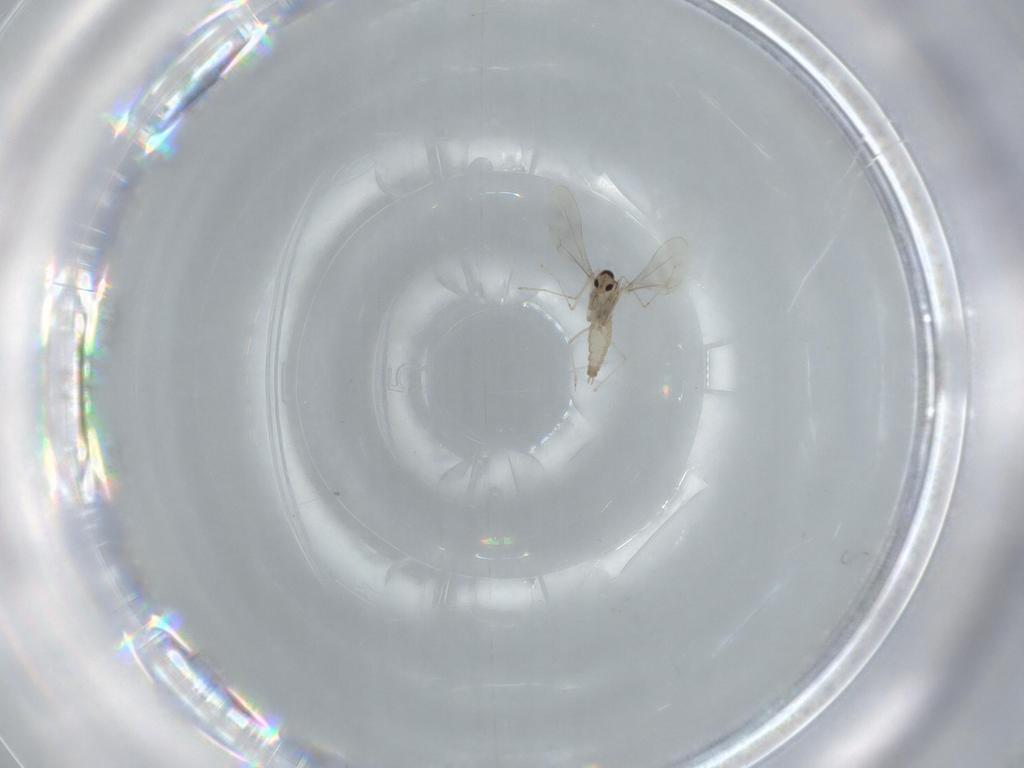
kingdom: Animalia
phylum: Arthropoda
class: Insecta
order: Diptera
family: Cecidomyiidae
